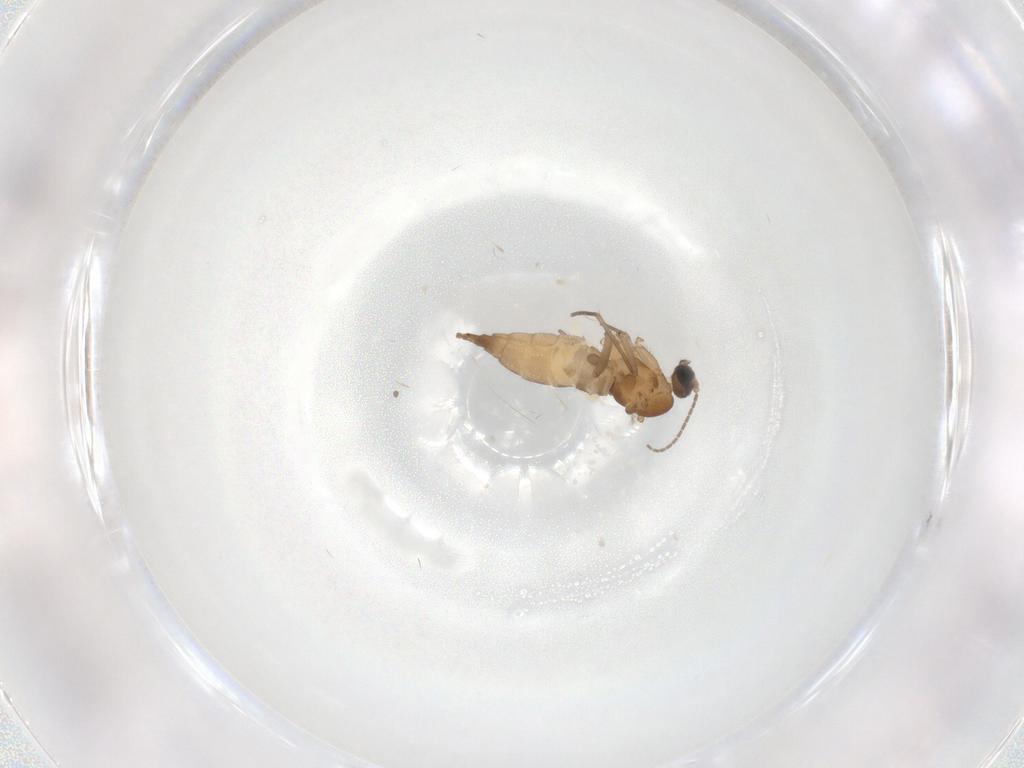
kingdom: Animalia
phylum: Arthropoda
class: Insecta
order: Diptera
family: Sciaridae
